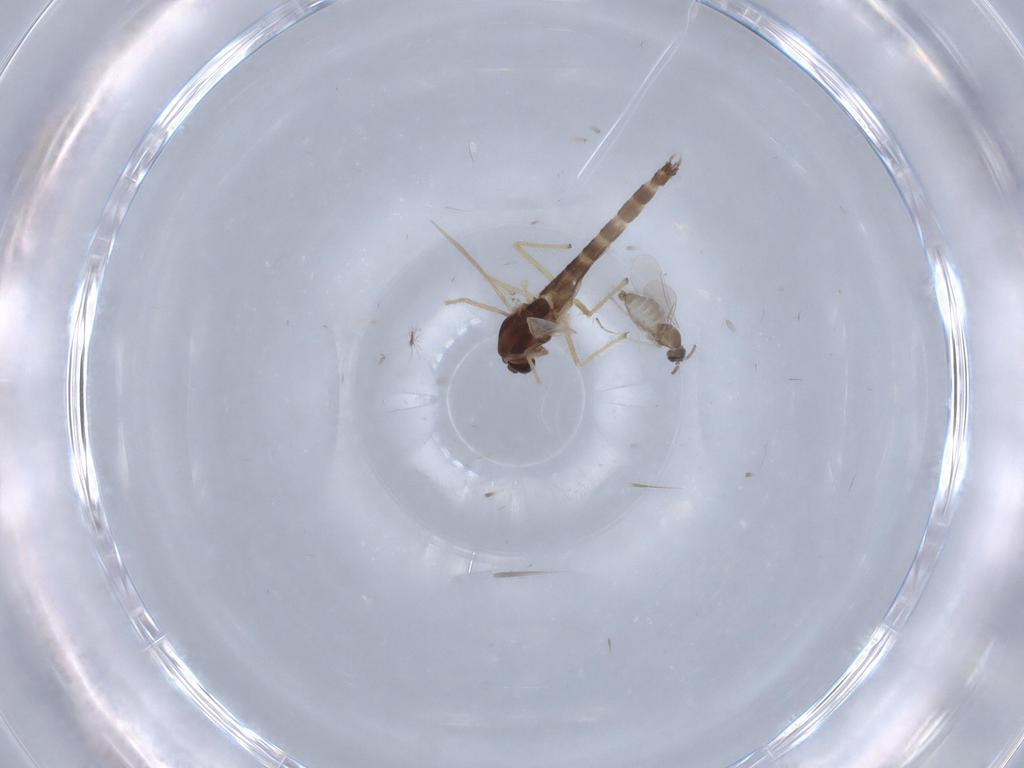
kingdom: Animalia
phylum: Arthropoda
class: Insecta
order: Diptera
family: Chironomidae
